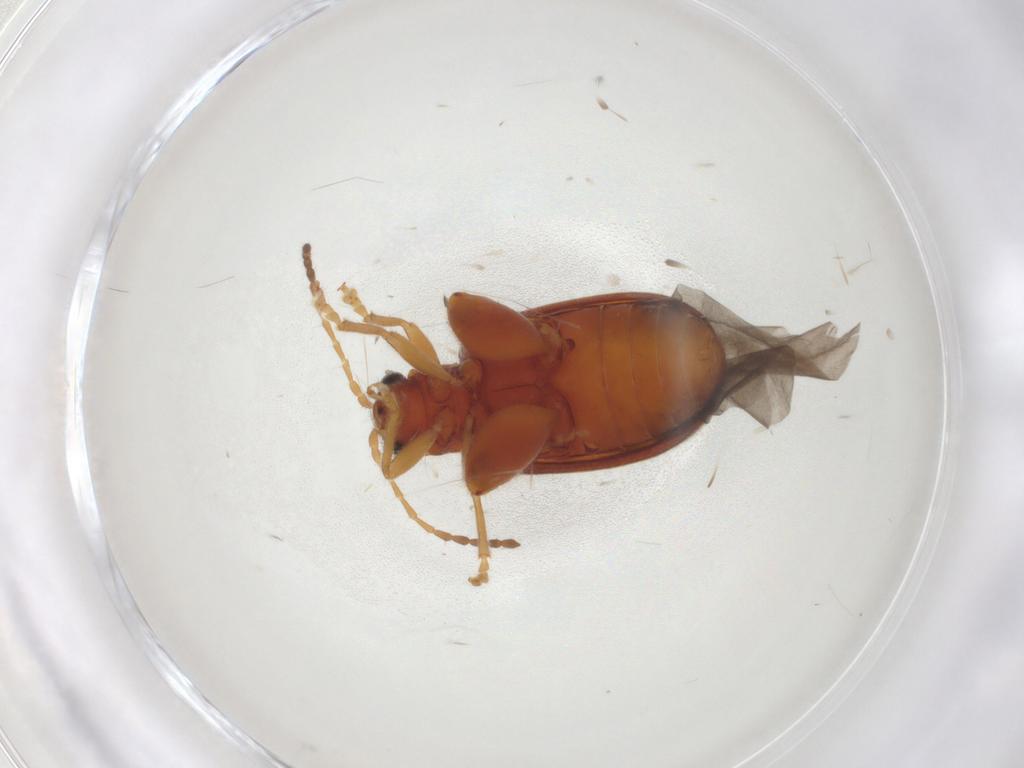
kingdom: Animalia
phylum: Arthropoda
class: Insecta
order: Coleoptera
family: Chrysomelidae
